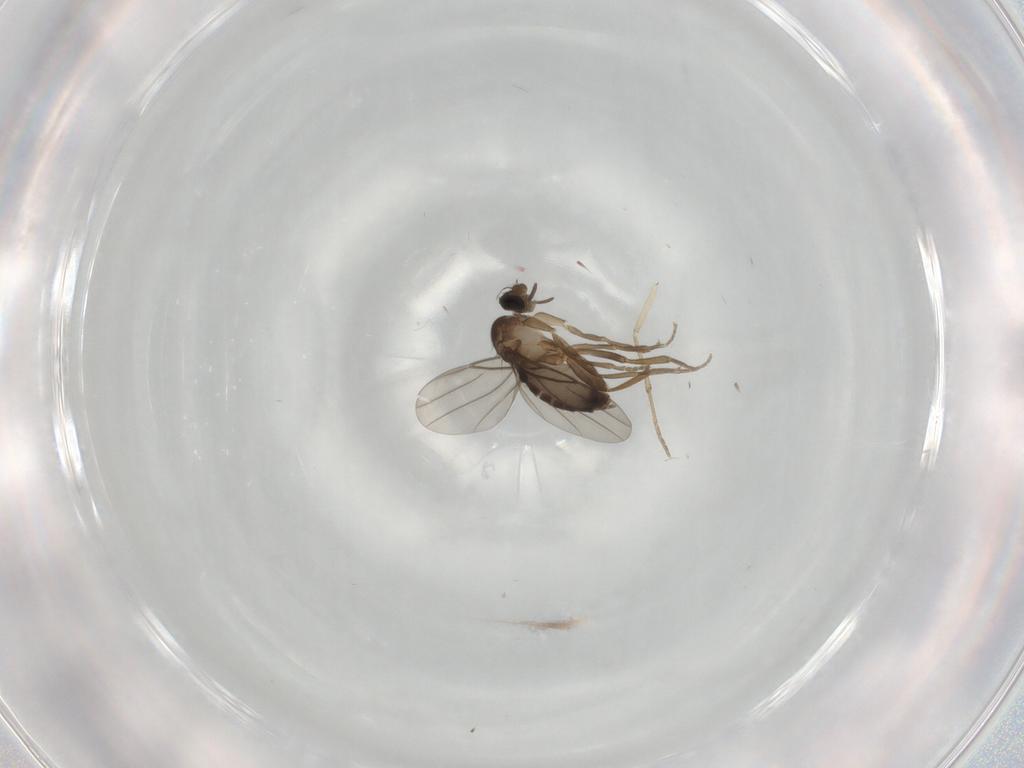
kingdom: Animalia
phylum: Arthropoda
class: Insecta
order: Diptera
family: Cecidomyiidae
